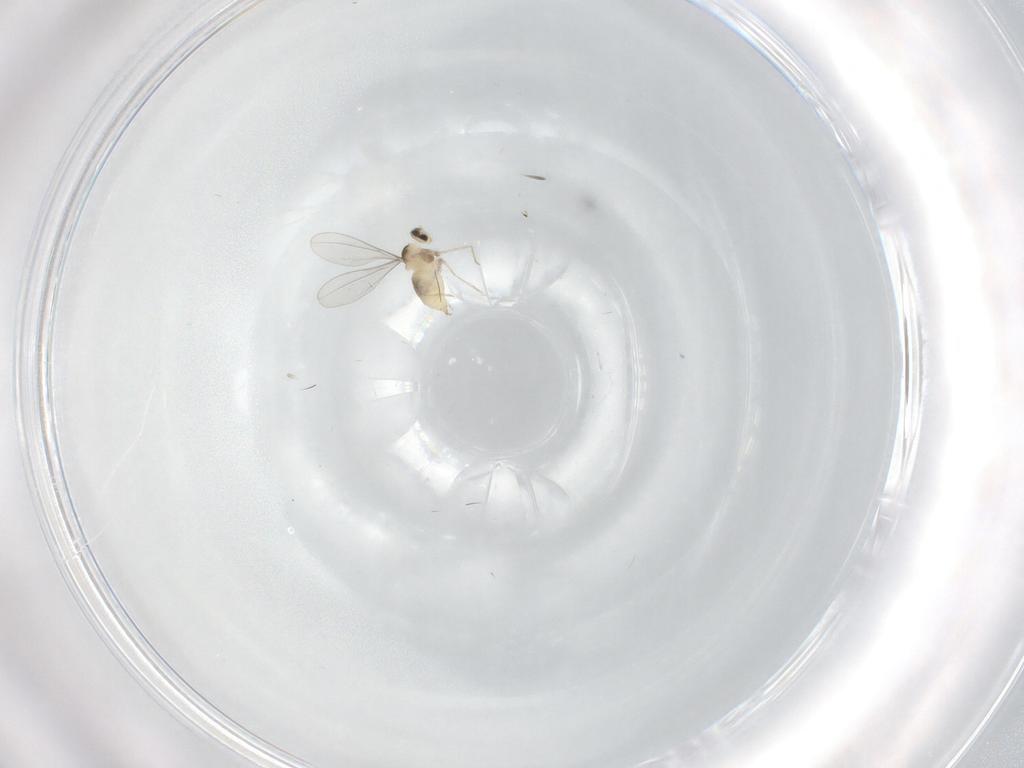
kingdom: Animalia
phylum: Arthropoda
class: Insecta
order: Diptera
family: Cecidomyiidae
